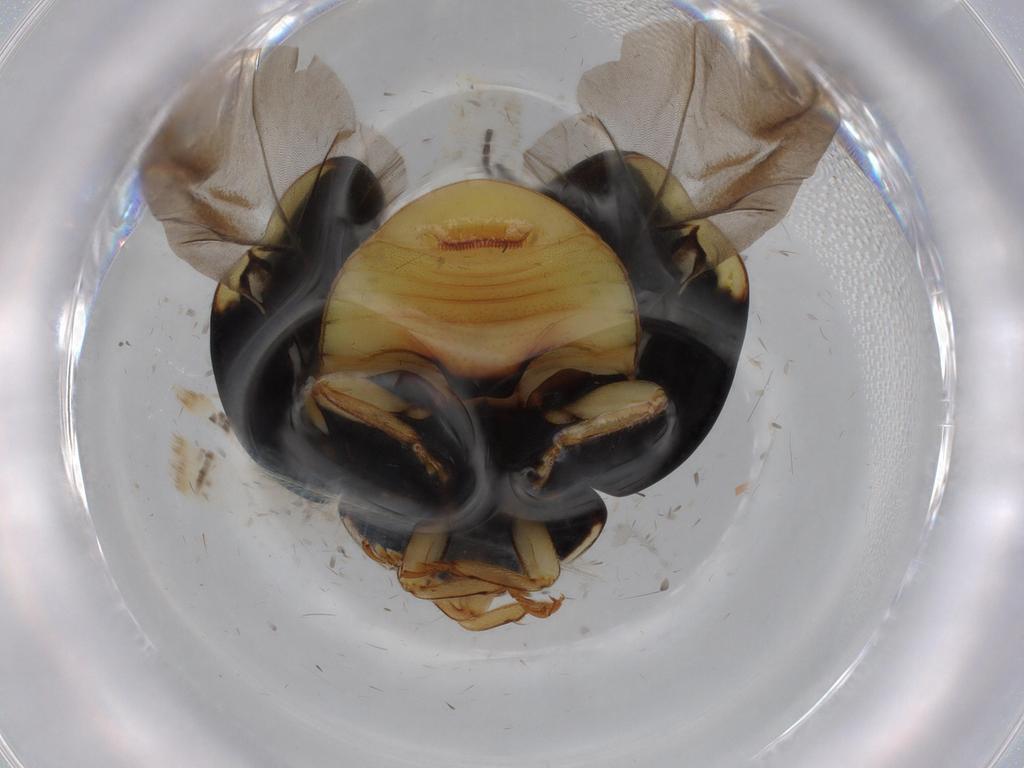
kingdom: Animalia
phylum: Arthropoda
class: Insecta
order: Coleoptera
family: Coccinellidae
